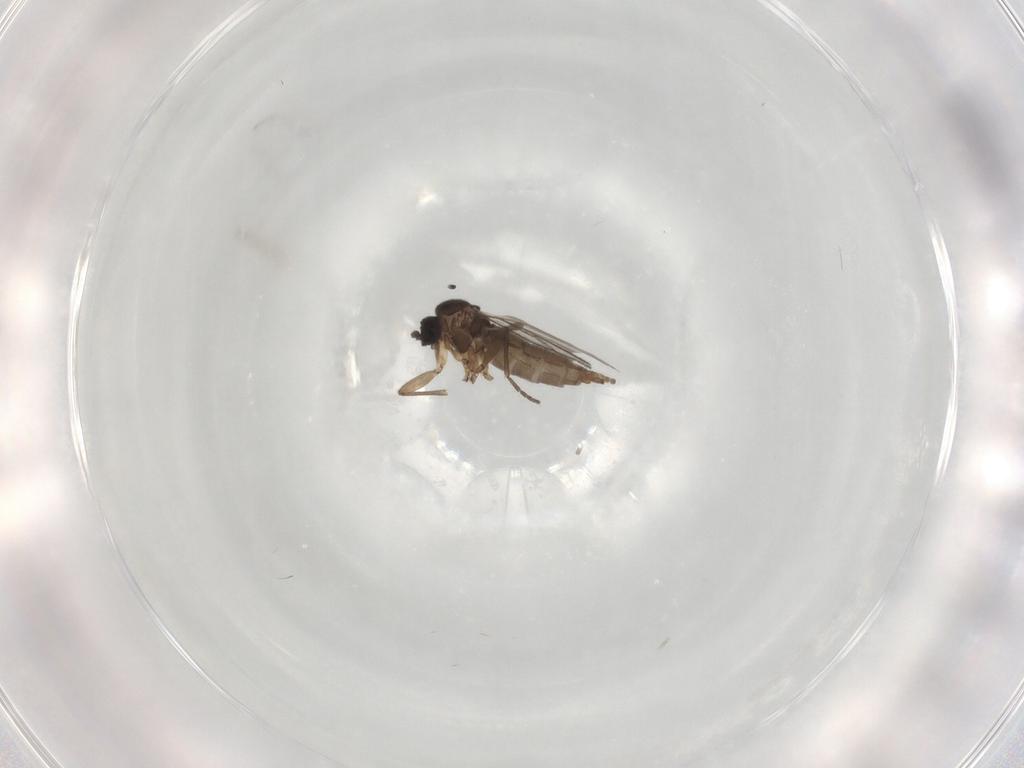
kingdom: Animalia
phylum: Arthropoda
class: Insecta
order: Diptera
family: Sciaridae
